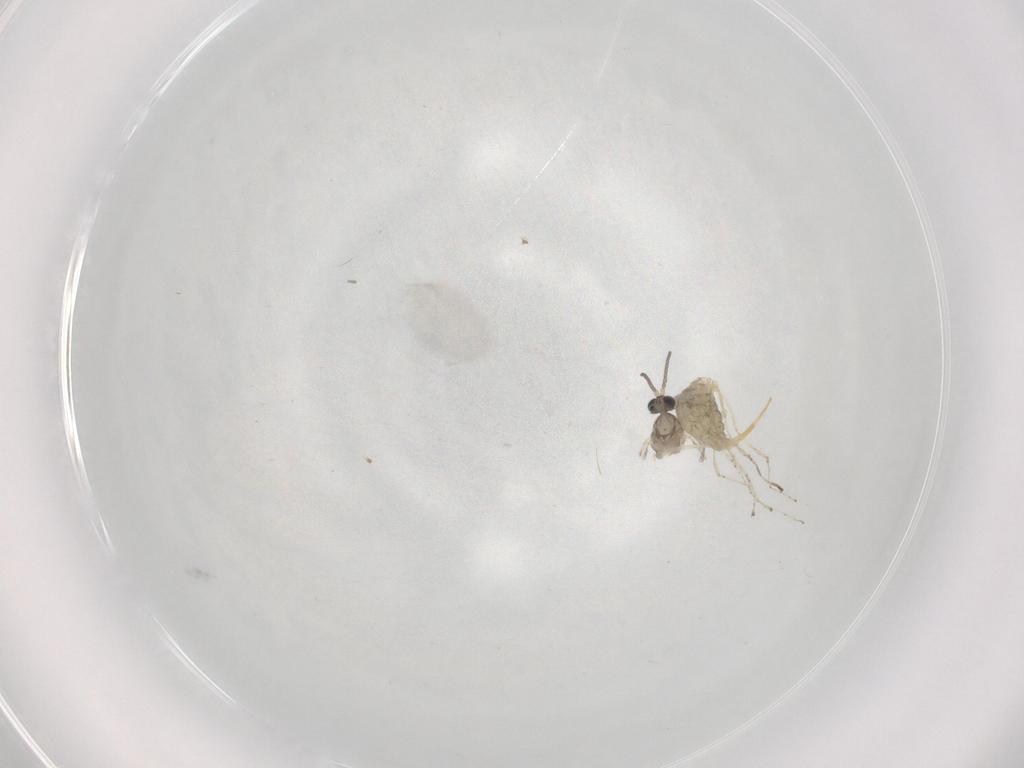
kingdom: Animalia
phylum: Arthropoda
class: Insecta
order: Diptera
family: Cecidomyiidae
